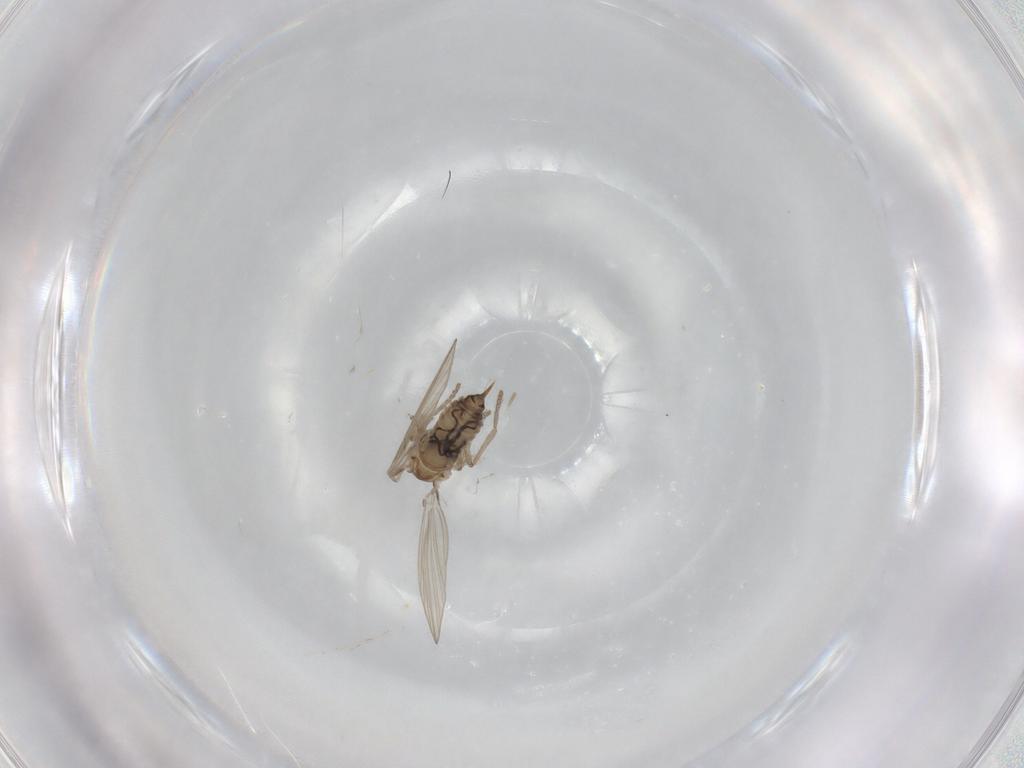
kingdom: Animalia
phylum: Arthropoda
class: Insecta
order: Diptera
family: Psychodidae
